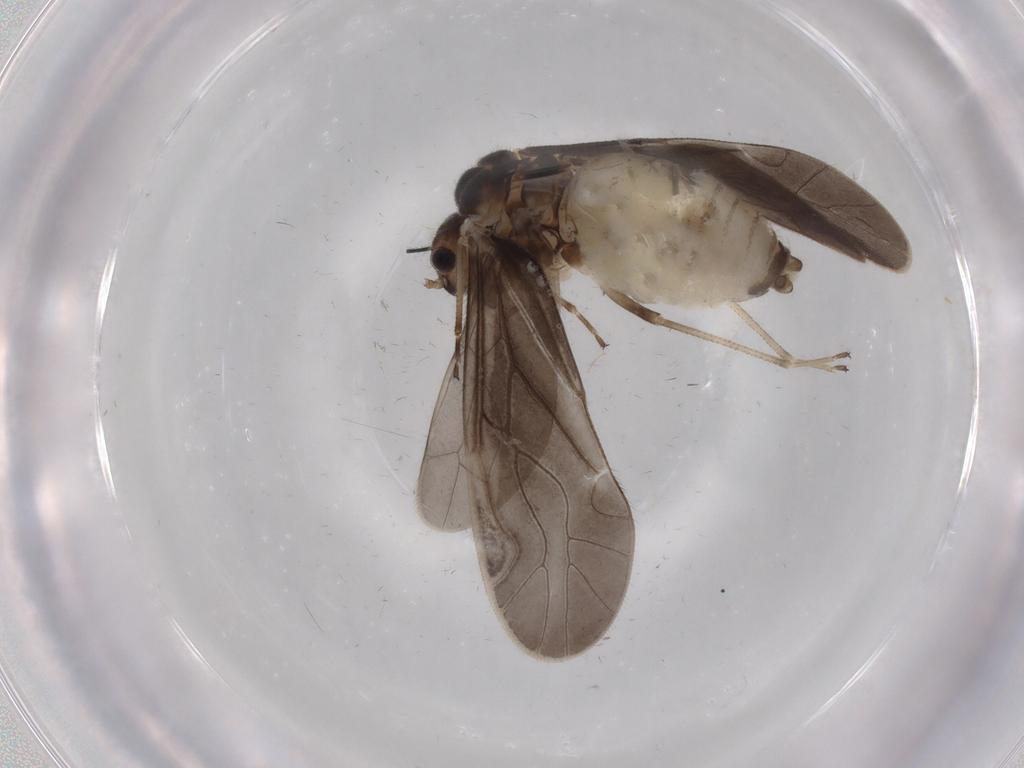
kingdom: Animalia
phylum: Arthropoda
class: Insecta
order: Psocodea
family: Caeciliusidae
